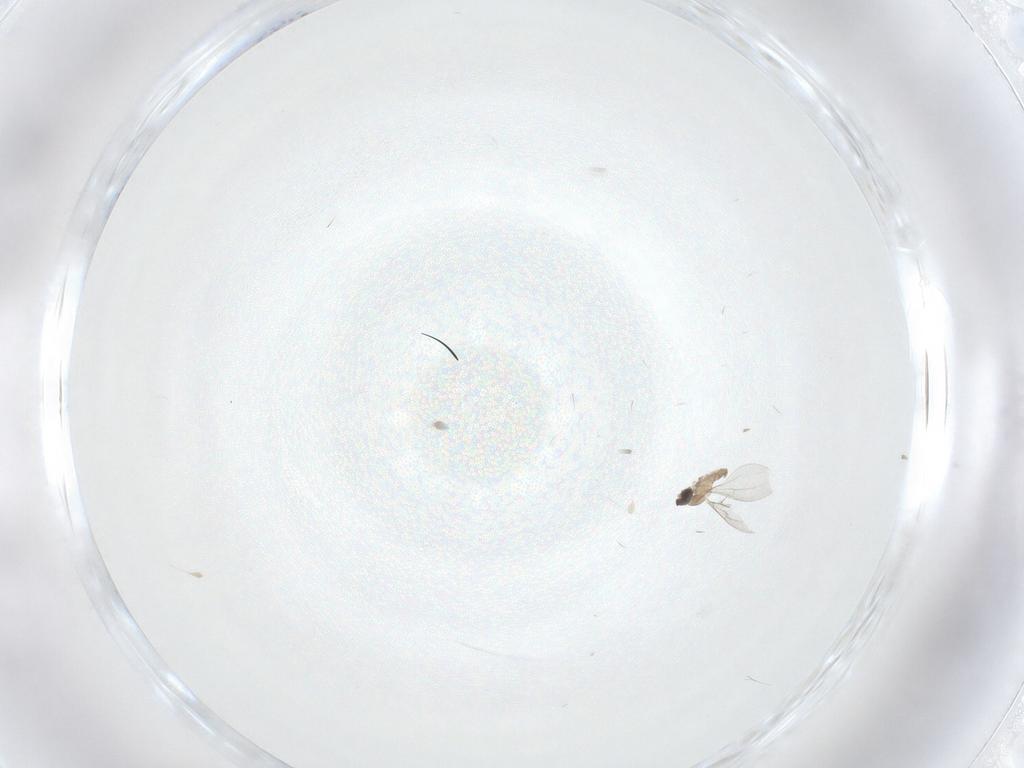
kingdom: Animalia
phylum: Arthropoda
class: Insecta
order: Diptera
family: Cecidomyiidae
